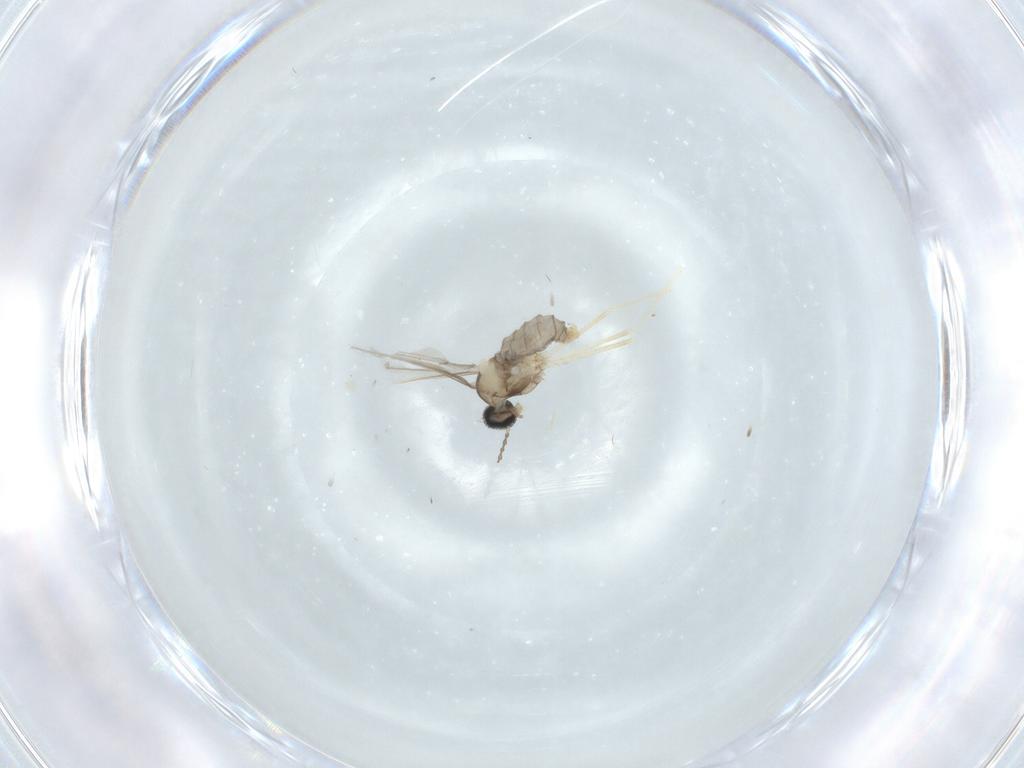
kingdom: Animalia
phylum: Arthropoda
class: Insecta
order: Diptera
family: Cecidomyiidae
